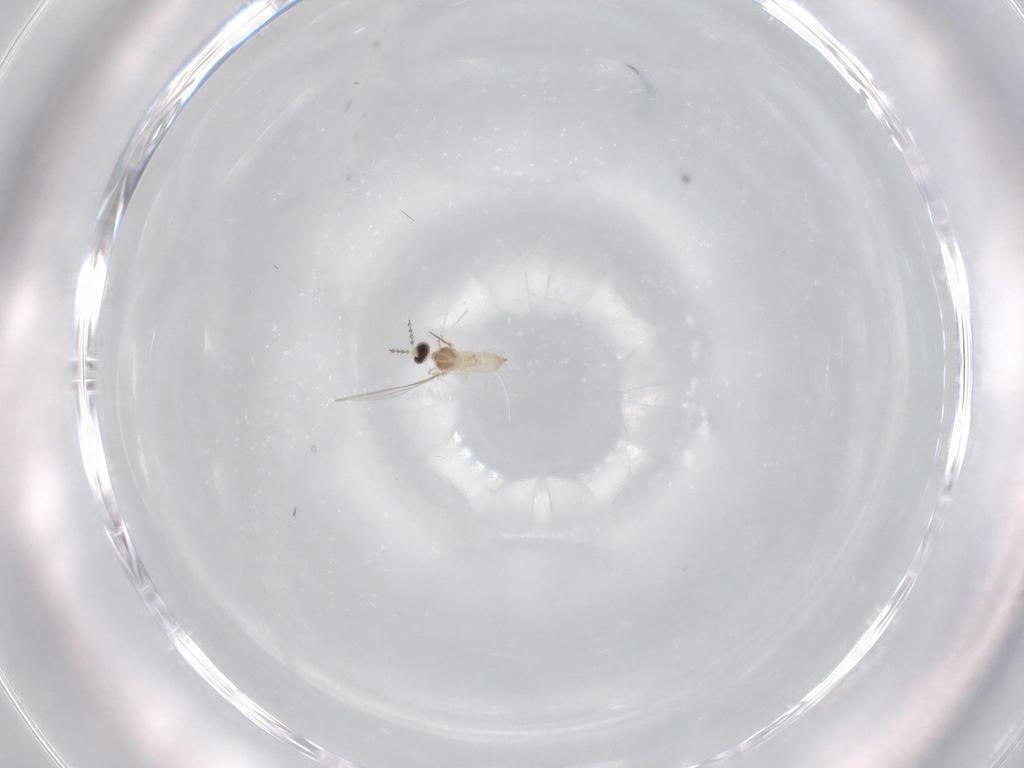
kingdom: Animalia
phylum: Arthropoda
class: Insecta
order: Diptera
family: Cecidomyiidae
